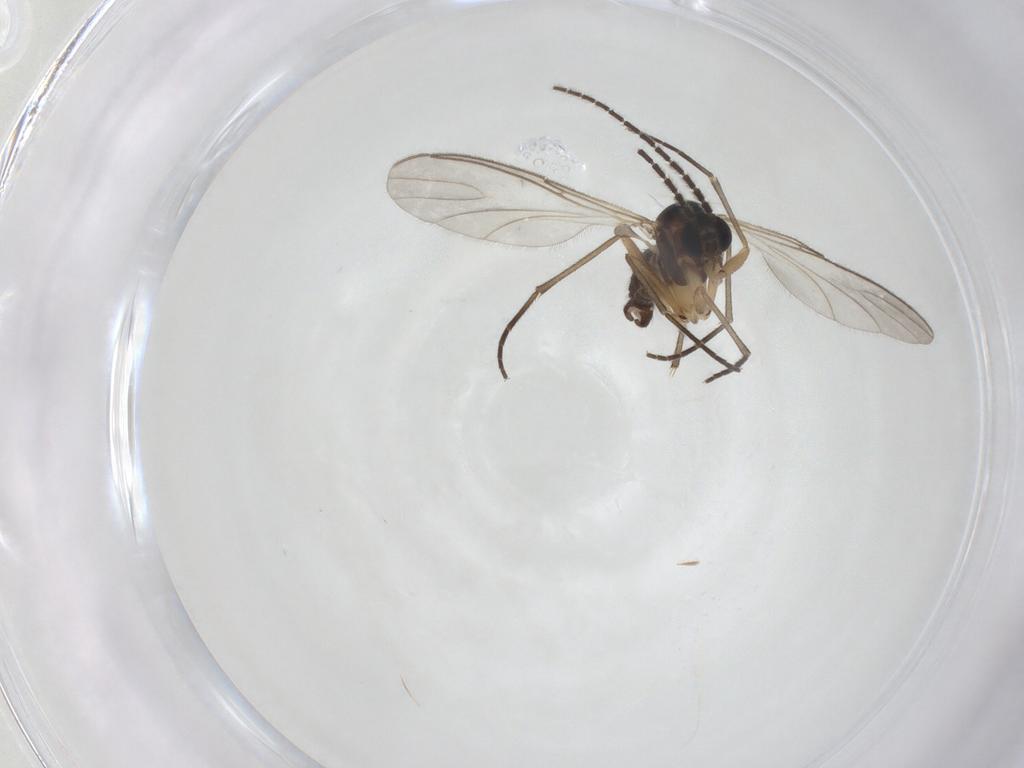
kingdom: Animalia
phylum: Arthropoda
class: Insecta
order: Diptera
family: Sciaridae
